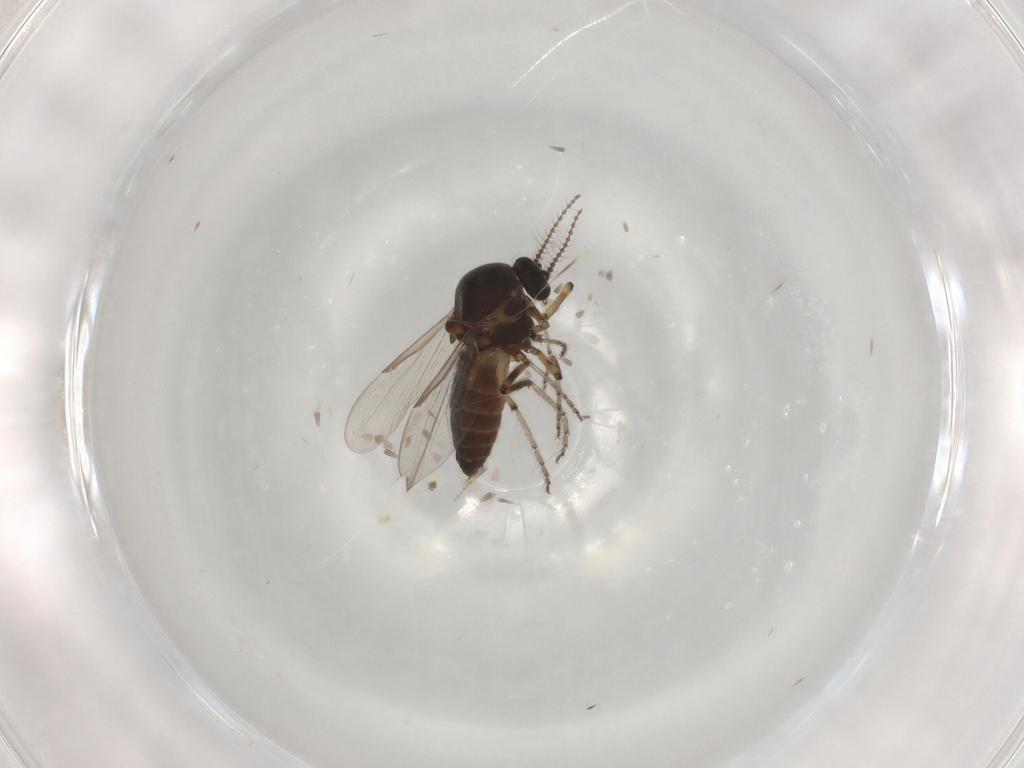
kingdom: Animalia
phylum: Arthropoda
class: Insecta
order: Diptera
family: Ceratopogonidae
